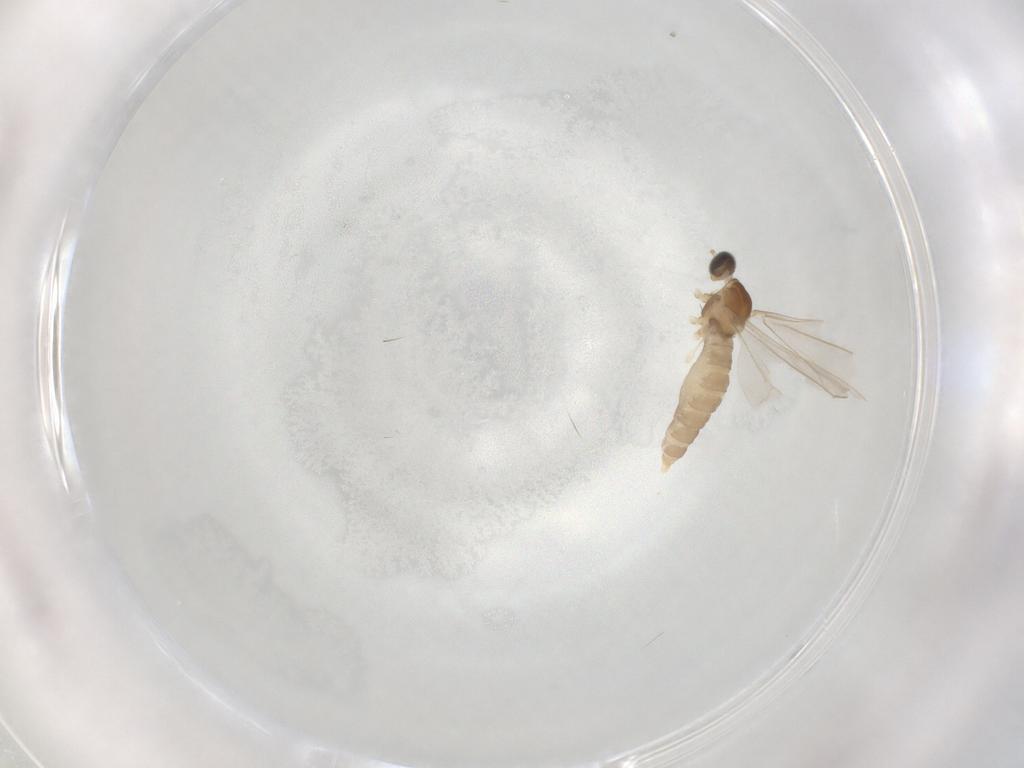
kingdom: Animalia
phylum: Arthropoda
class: Insecta
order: Diptera
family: Cecidomyiidae
